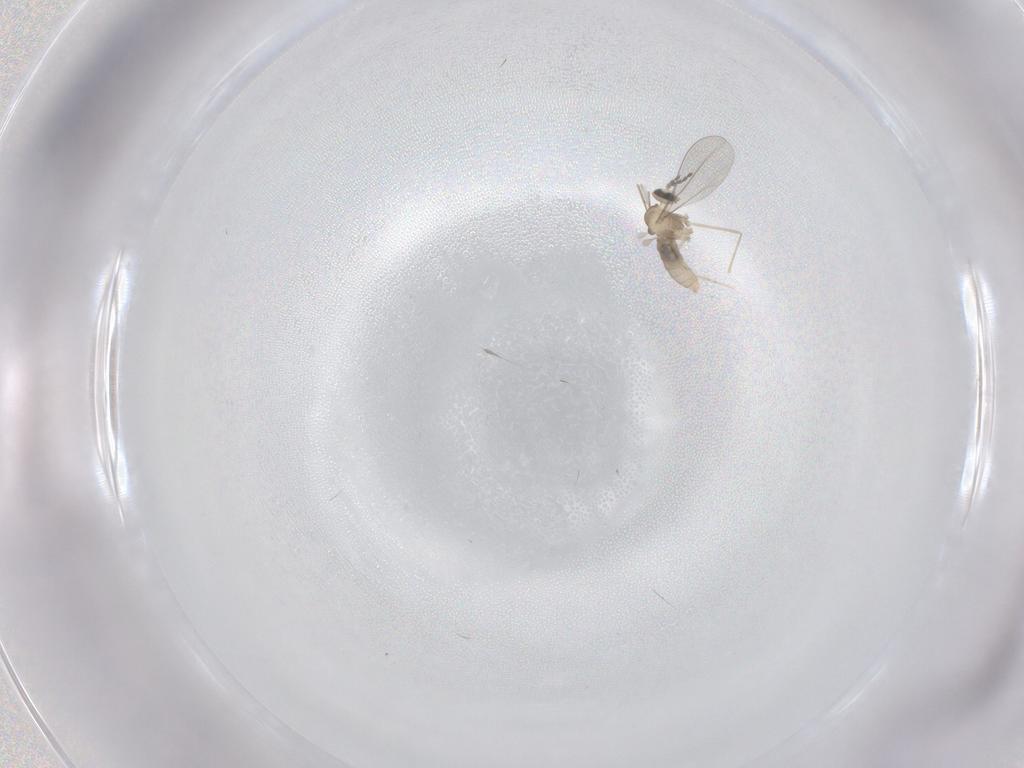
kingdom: Animalia
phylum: Arthropoda
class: Insecta
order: Diptera
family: Cecidomyiidae
